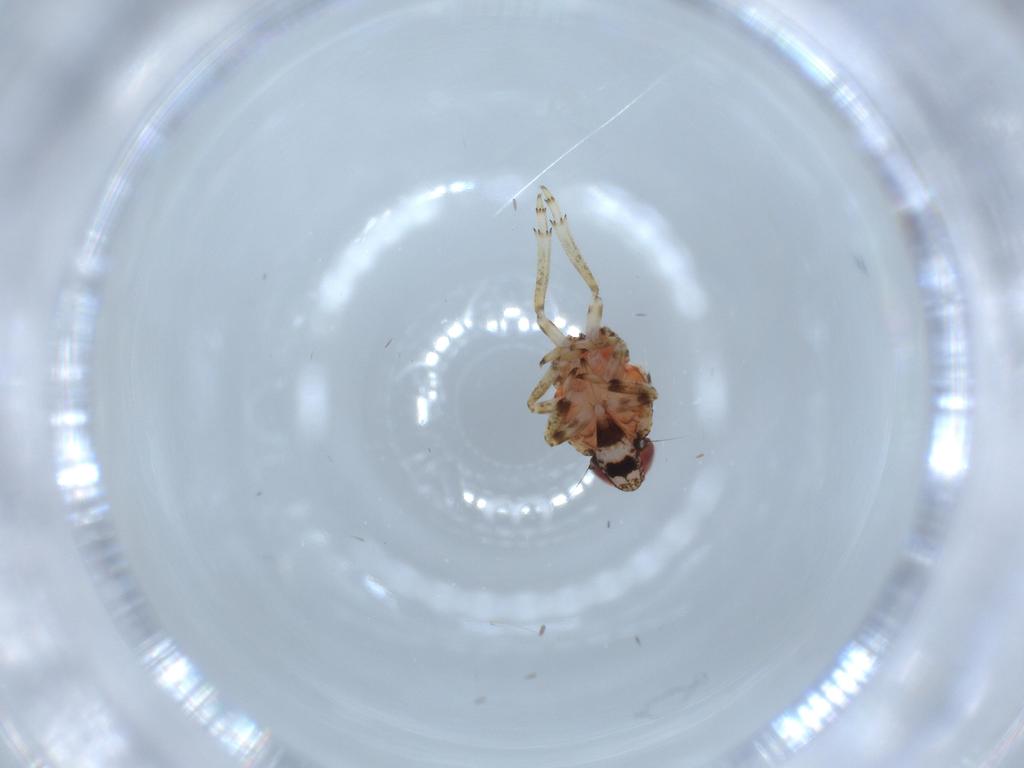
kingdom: Animalia
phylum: Arthropoda
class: Insecta
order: Hemiptera
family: Issidae
